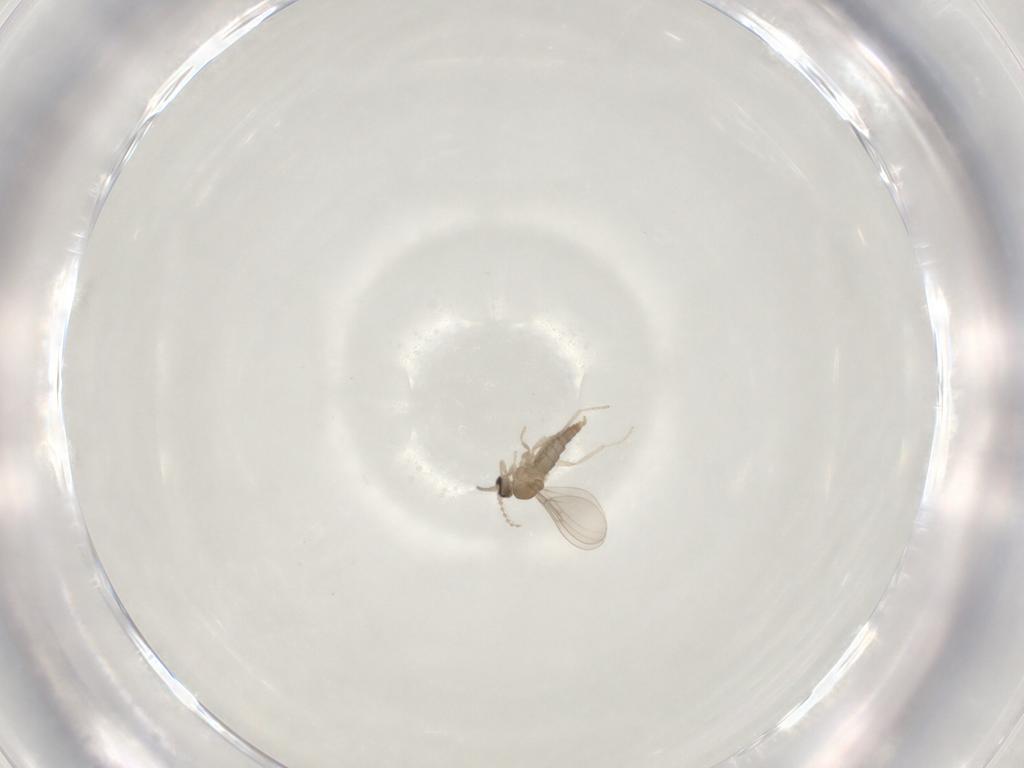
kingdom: Animalia
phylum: Arthropoda
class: Insecta
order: Diptera
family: Cecidomyiidae
